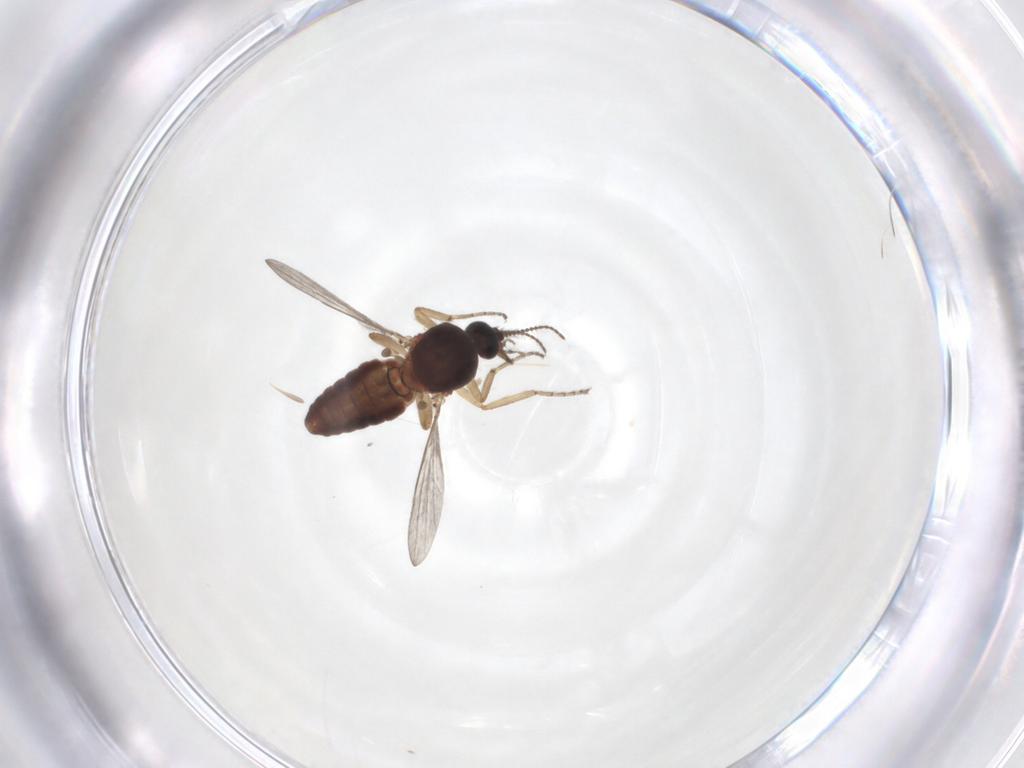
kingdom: Animalia
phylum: Arthropoda
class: Insecta
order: Diptera
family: Ceratopogonidae
